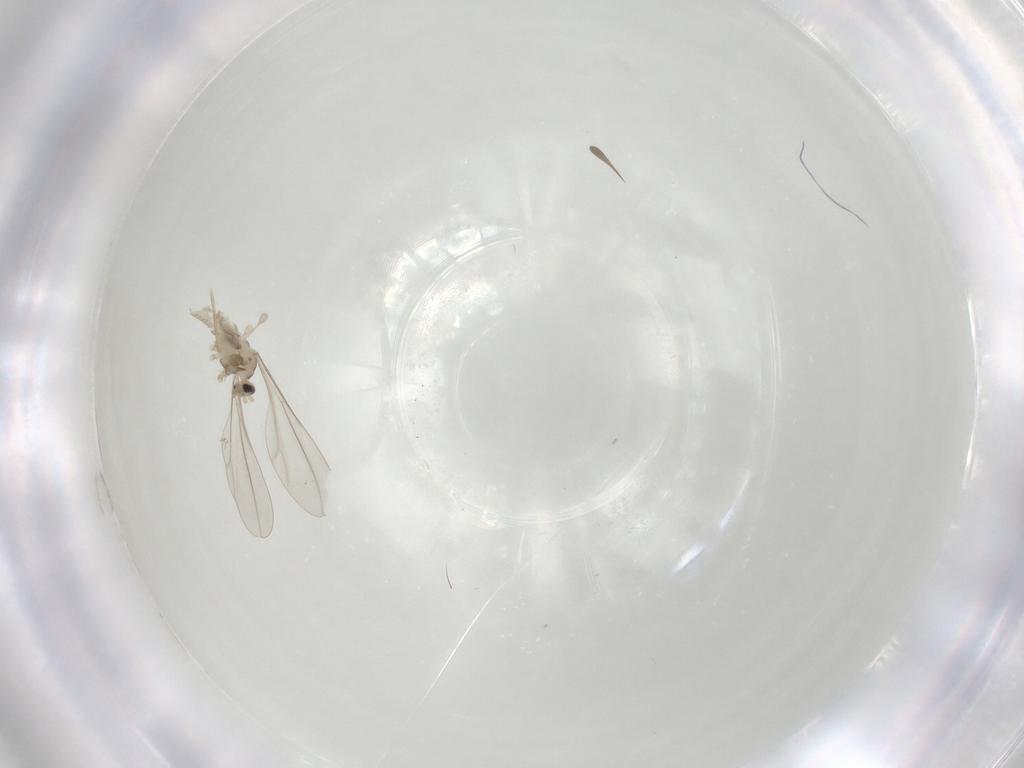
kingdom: Animalia
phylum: Arthropoda
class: Insecta
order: Diptera
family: Cecidomyiidae
